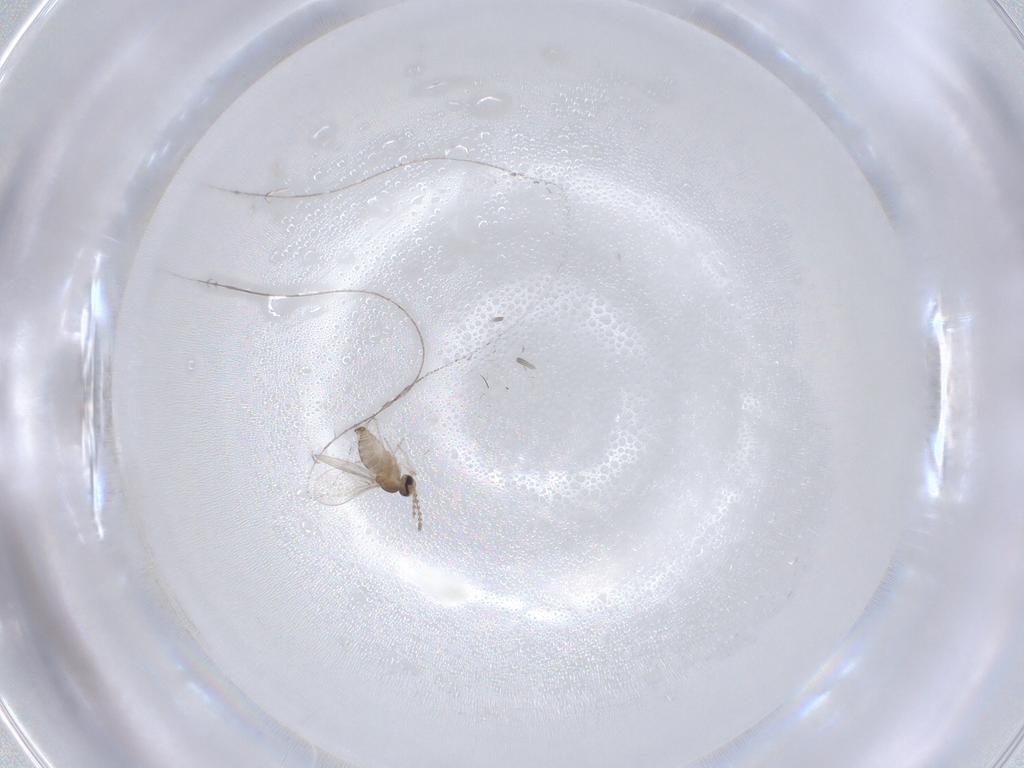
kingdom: Animalia
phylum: Arthropoda
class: Insecta
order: Diptera
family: Cecidomyiidae
